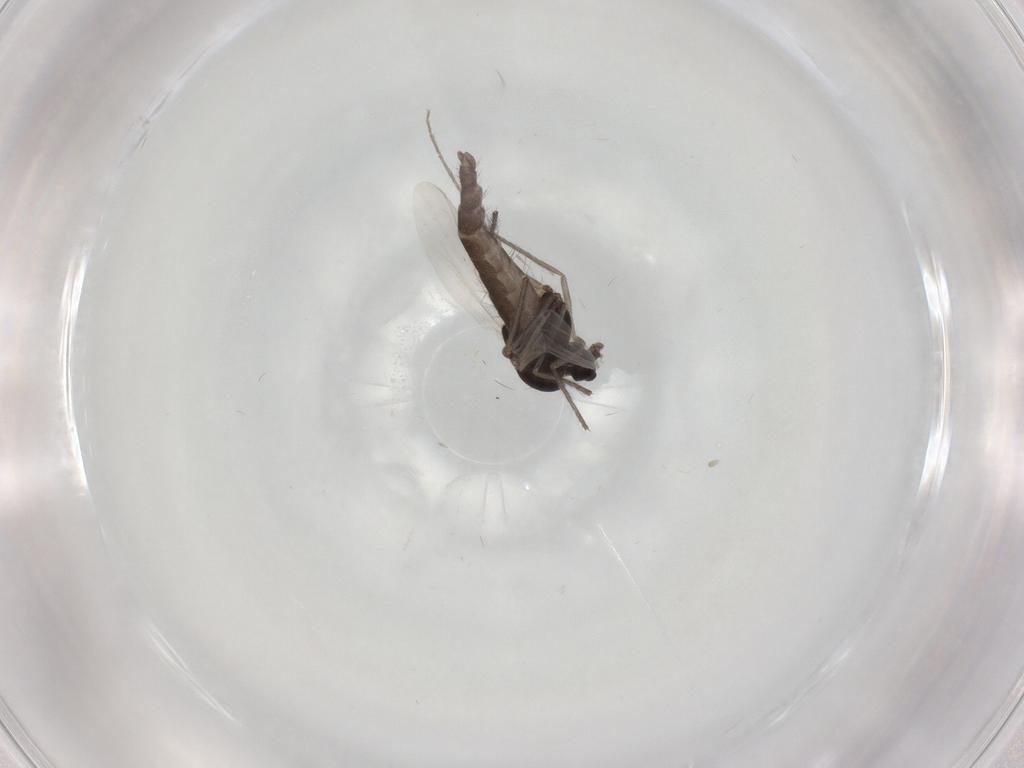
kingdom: Animalia
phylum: Arthropoda
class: Insecta
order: Diptera
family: Chironomidae
